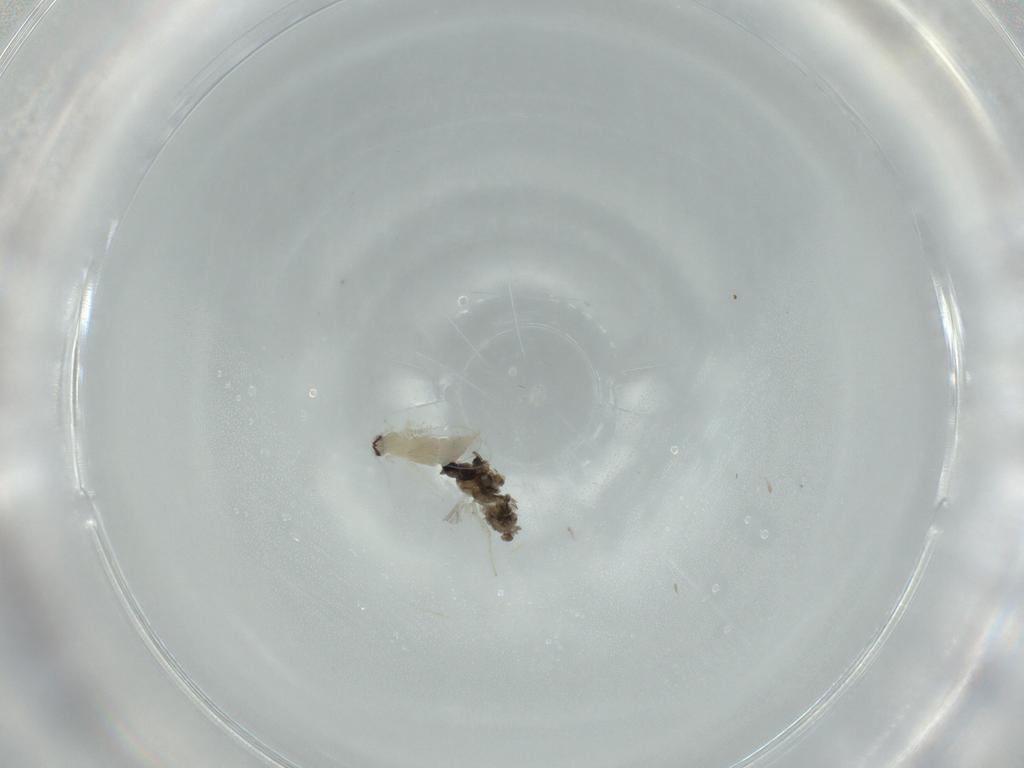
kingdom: Animalia
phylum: Arthropoda
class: Insecta
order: Diptera
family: Cecidomyiidae
